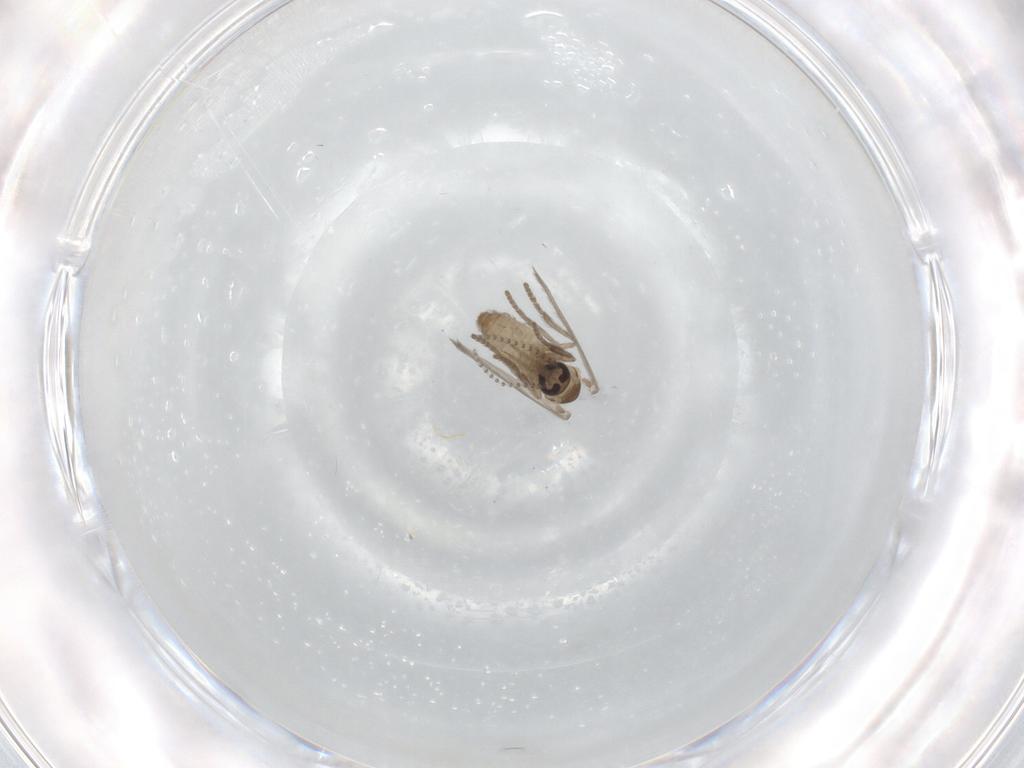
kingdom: Animalia
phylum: Arthropoda
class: Insecta
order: Diptera
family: Psychodidae
